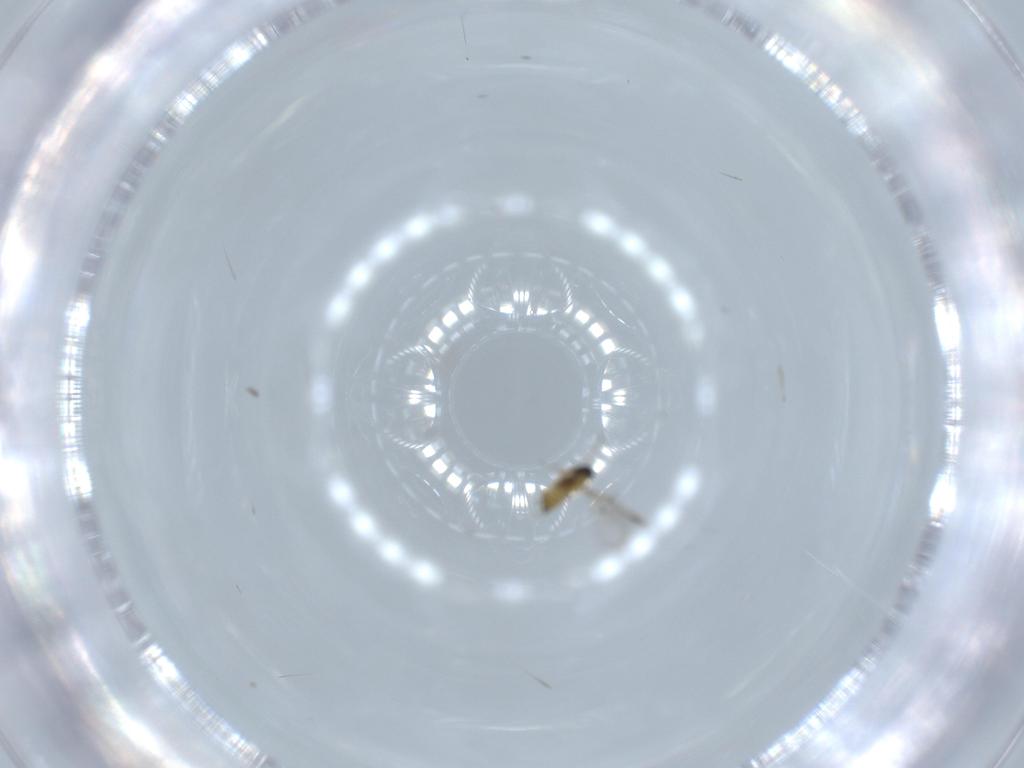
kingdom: Animalia
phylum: Arthropoda
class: Insecta
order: Hymenoptera
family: Trichogrammatidae
